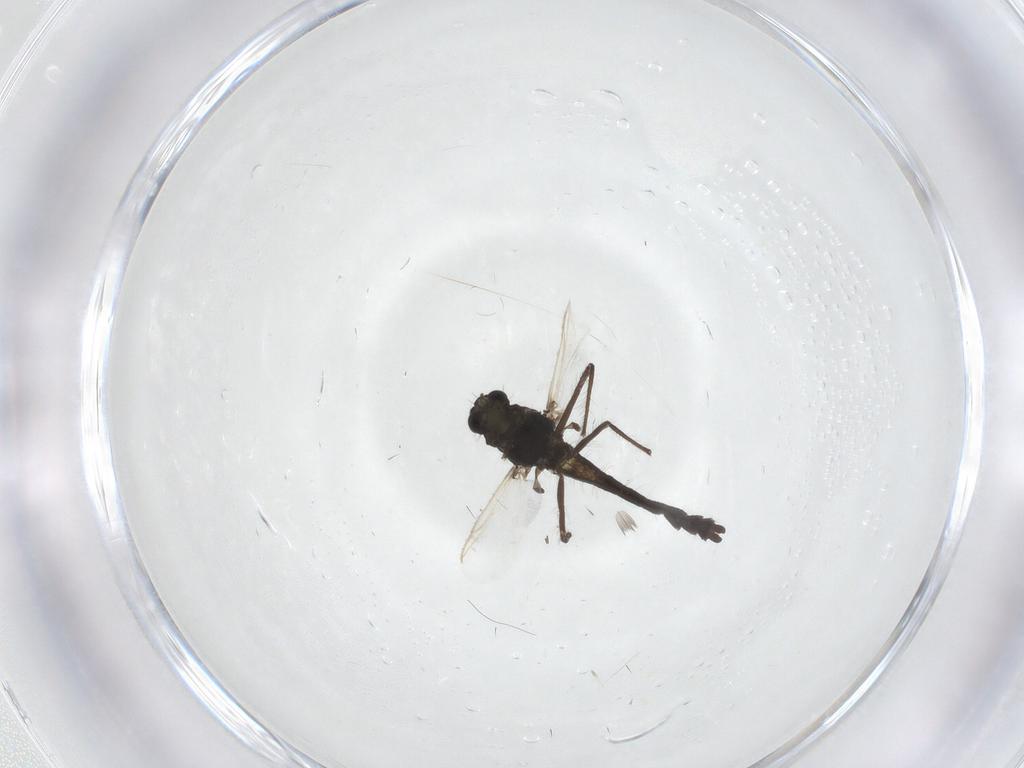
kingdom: Animalia
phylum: Arthropoda
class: Insecta
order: Diptera
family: Chironomidae
